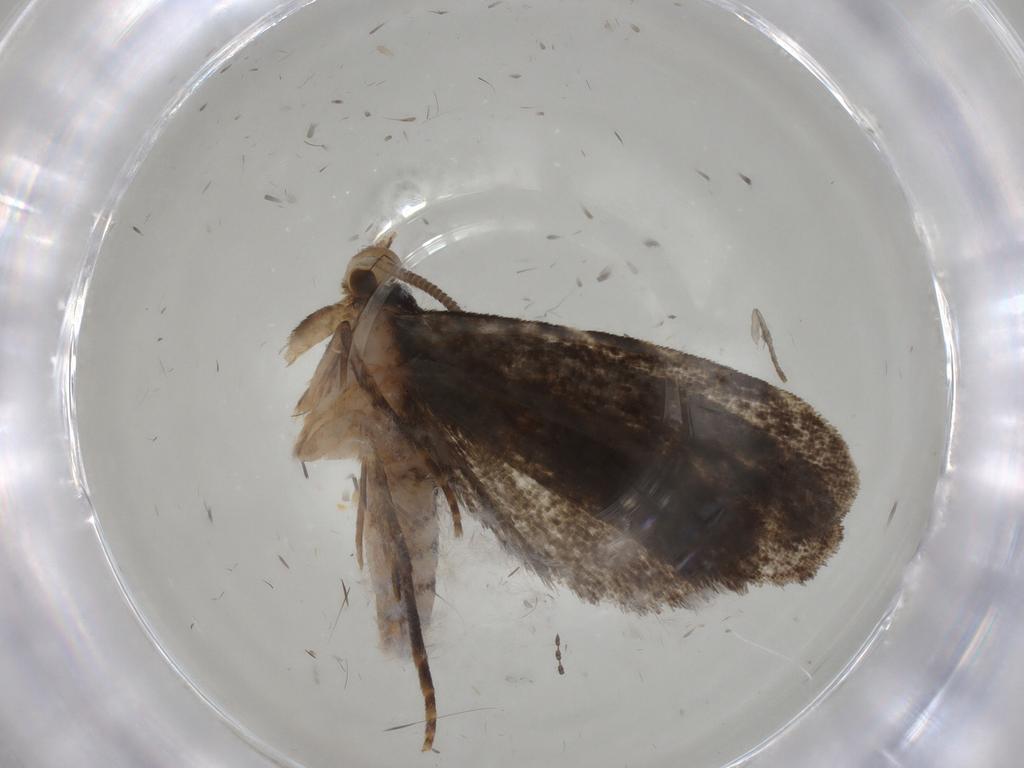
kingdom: Animalia
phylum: Arthropoda
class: Insecta
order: Lepidoptera
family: Dryadaulidae
